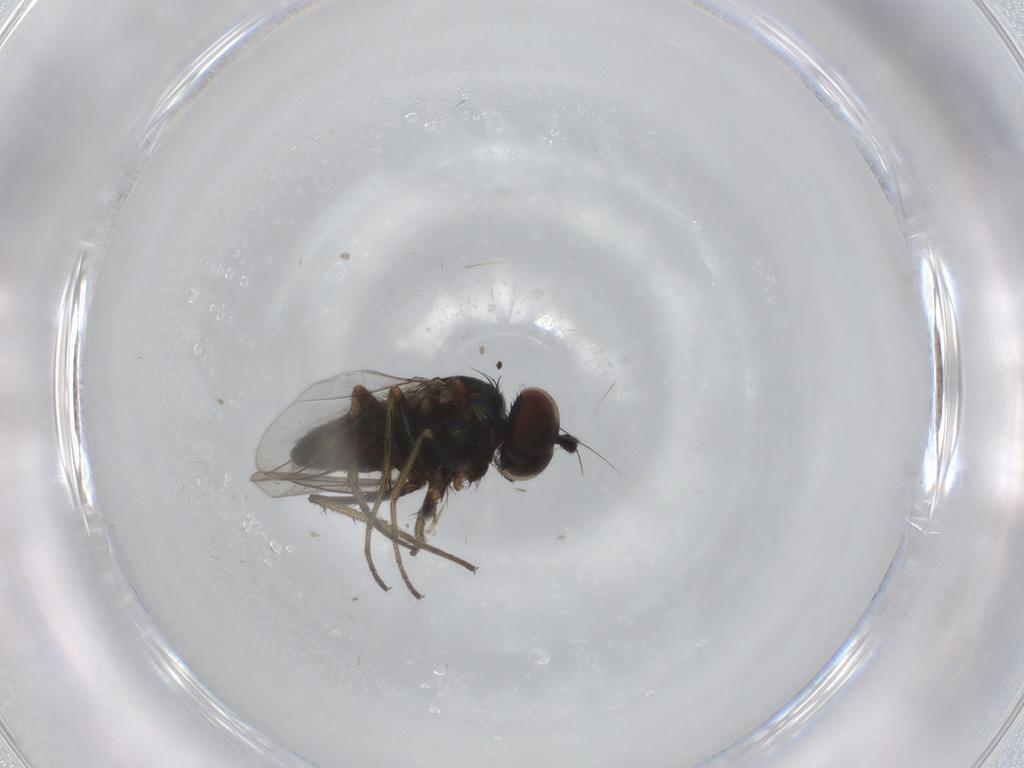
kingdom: Animalia
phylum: Arthropoda
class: Insecta
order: Diptera
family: Dolichopodidae
